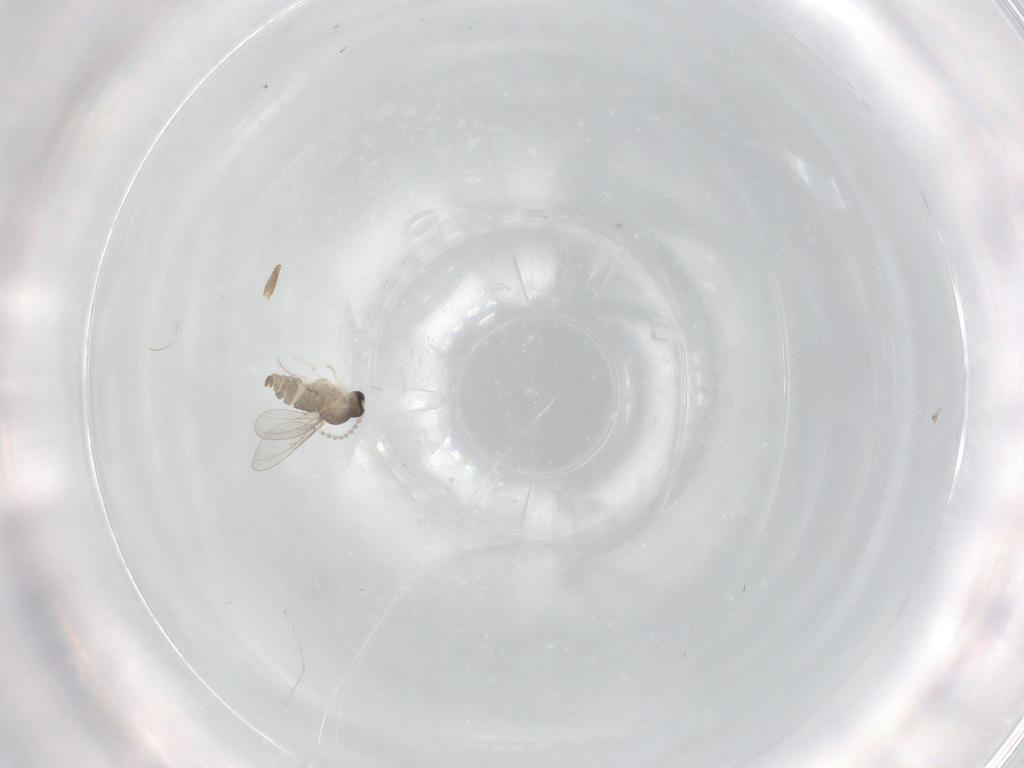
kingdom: Animalia
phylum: Arthropoda
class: Insecta
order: Diptera
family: Cecidomyiidae
